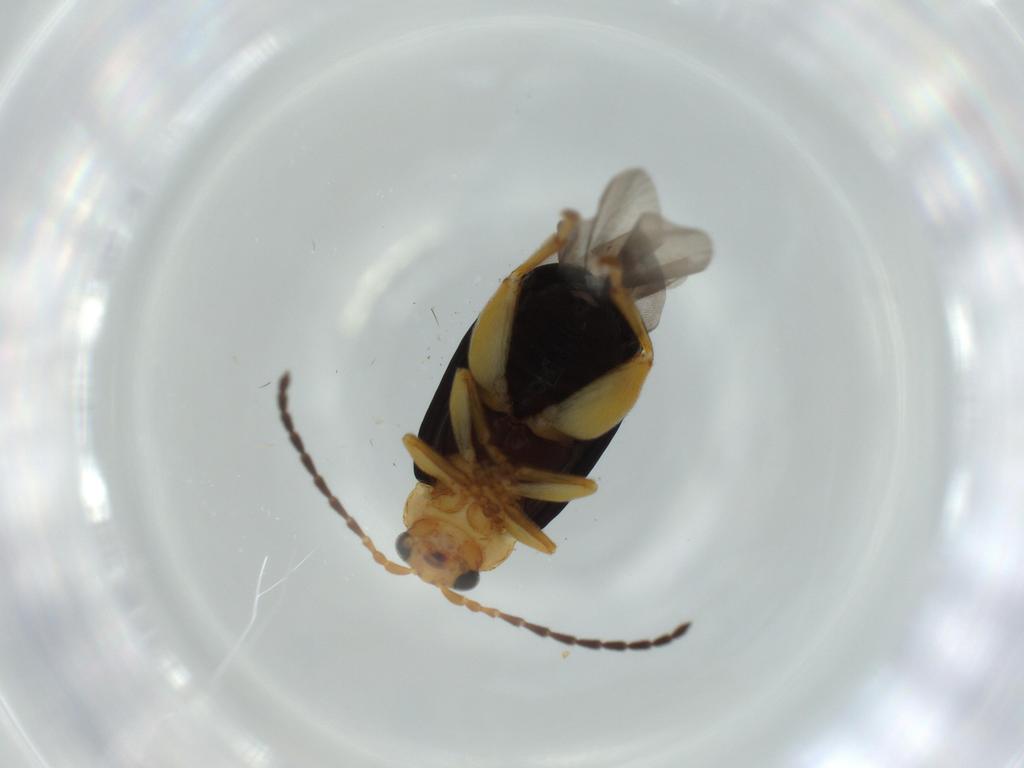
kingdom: Animalia
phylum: Arthropoda
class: Insecta
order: Coleoptera
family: Chrysomelidae
